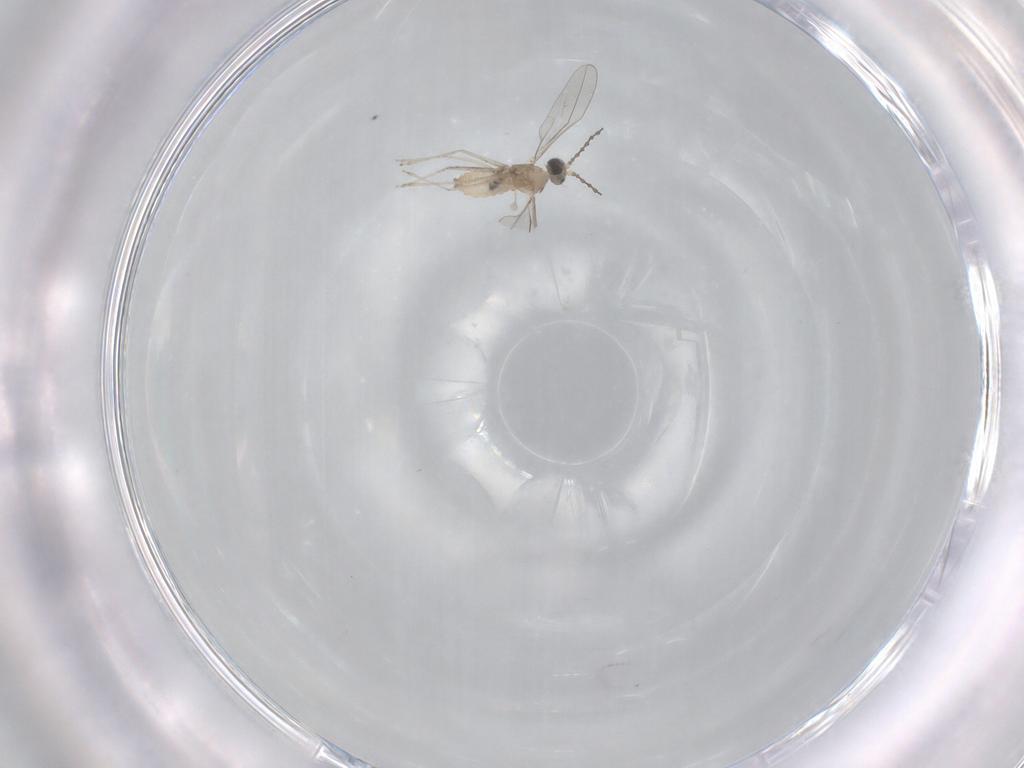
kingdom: Animalia
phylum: Arthropoda
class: Insecta
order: Diptera
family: Cecidomyiidae
